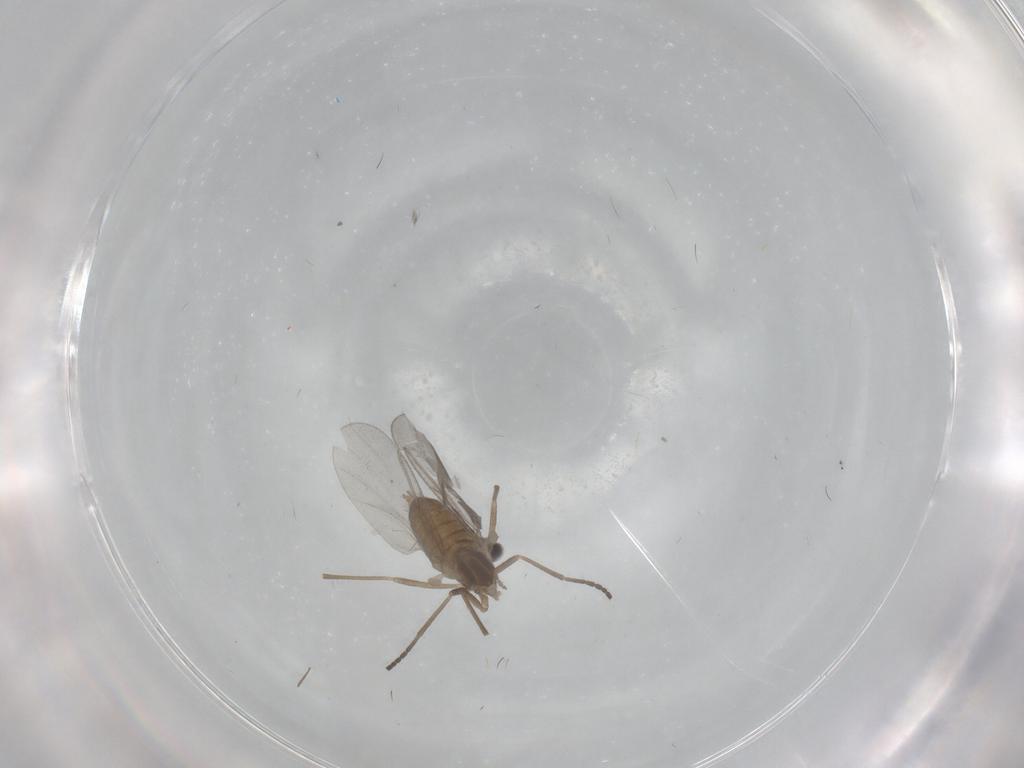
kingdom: Animalia
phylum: Arthropoda
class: Insecta
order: Diptera
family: Cecidomyiidae
